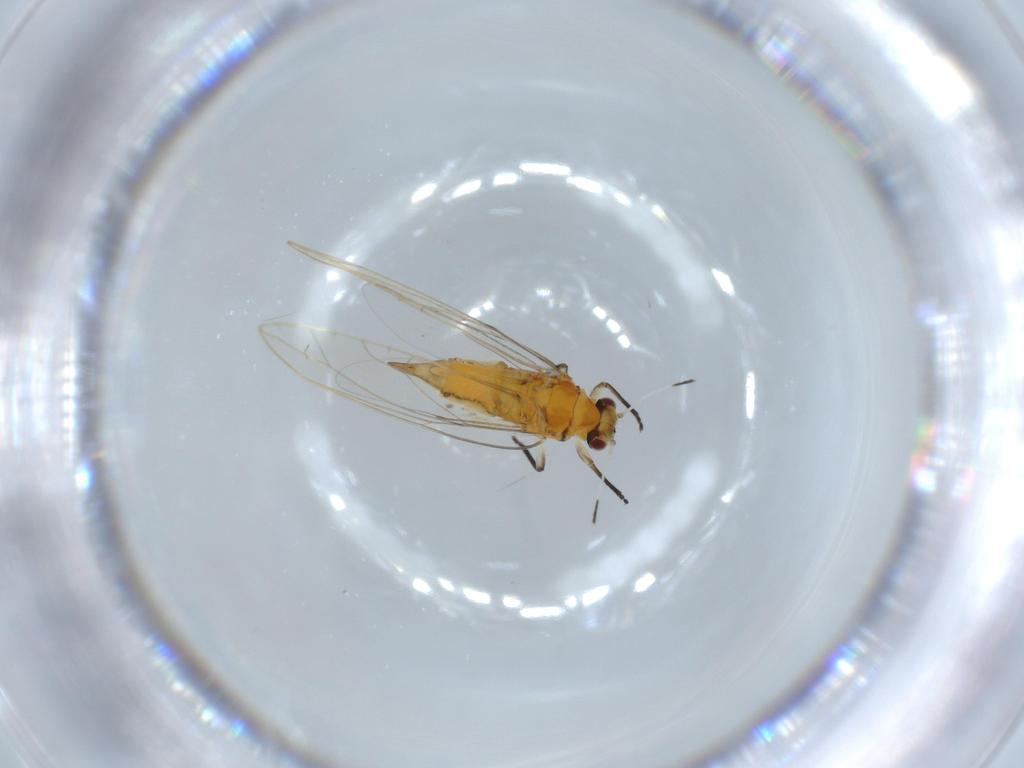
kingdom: Animalia
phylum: Arthropoda
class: Insecta
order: Hemiptera
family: Triozidae
